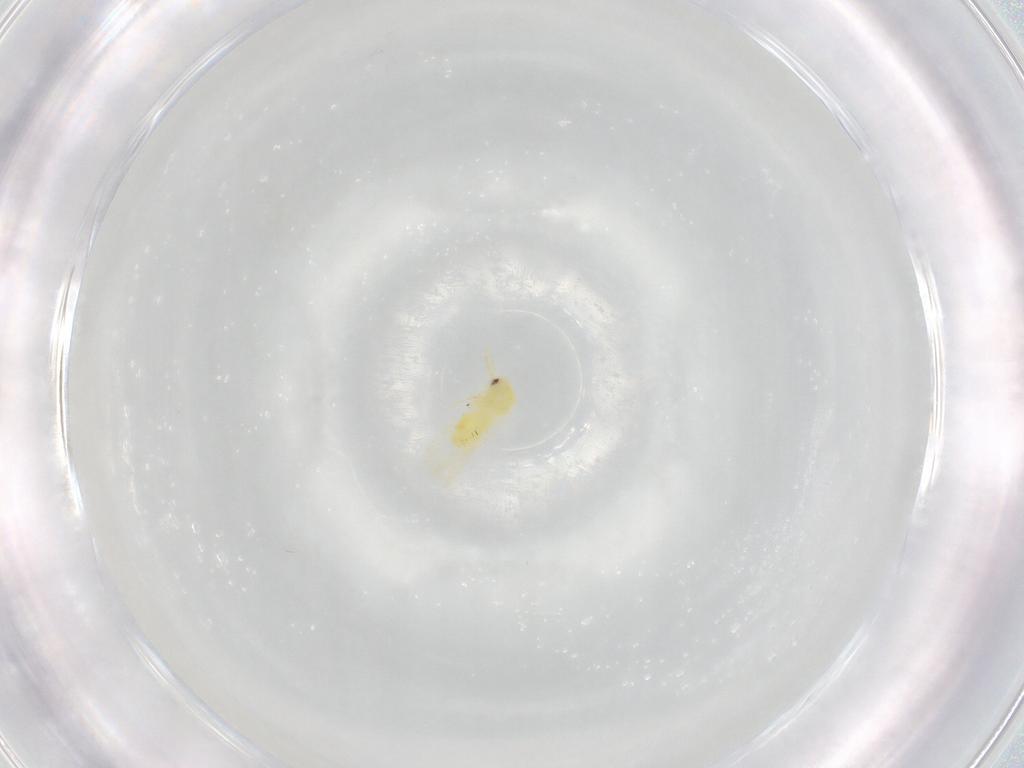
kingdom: Animalia
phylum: Arthropoda
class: Insecta
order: Hemiptera
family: Aleyrodidae
